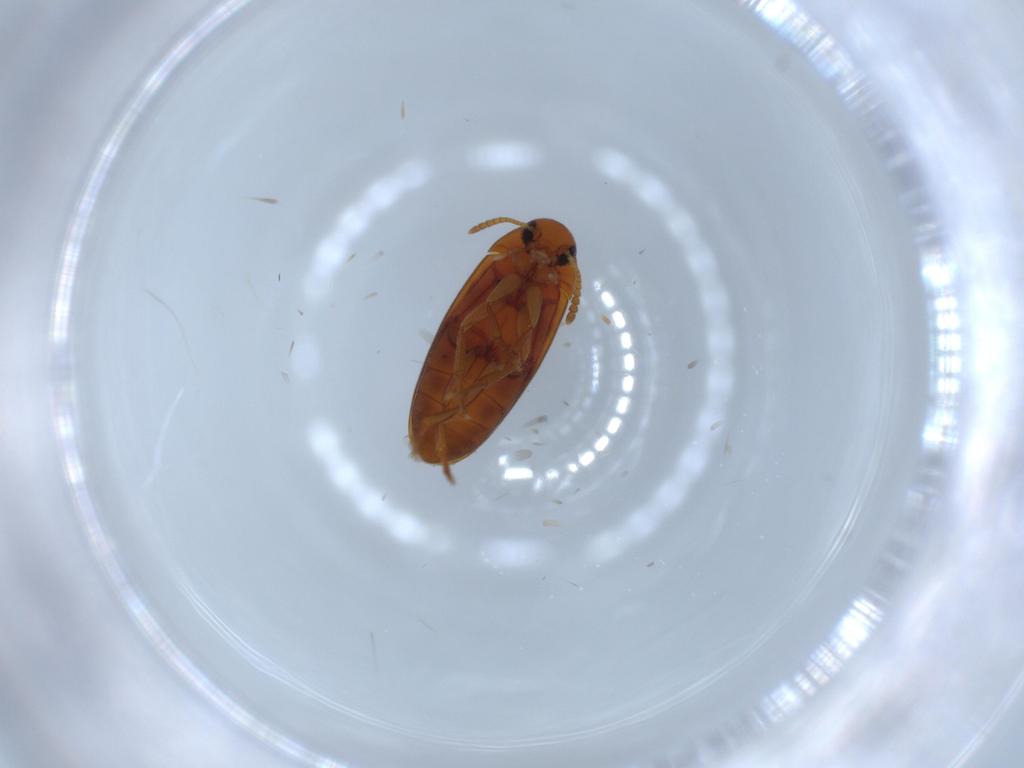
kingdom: Animalia
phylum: Arthropoda
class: Insecta
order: Coleoptera
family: Scraptiidae
